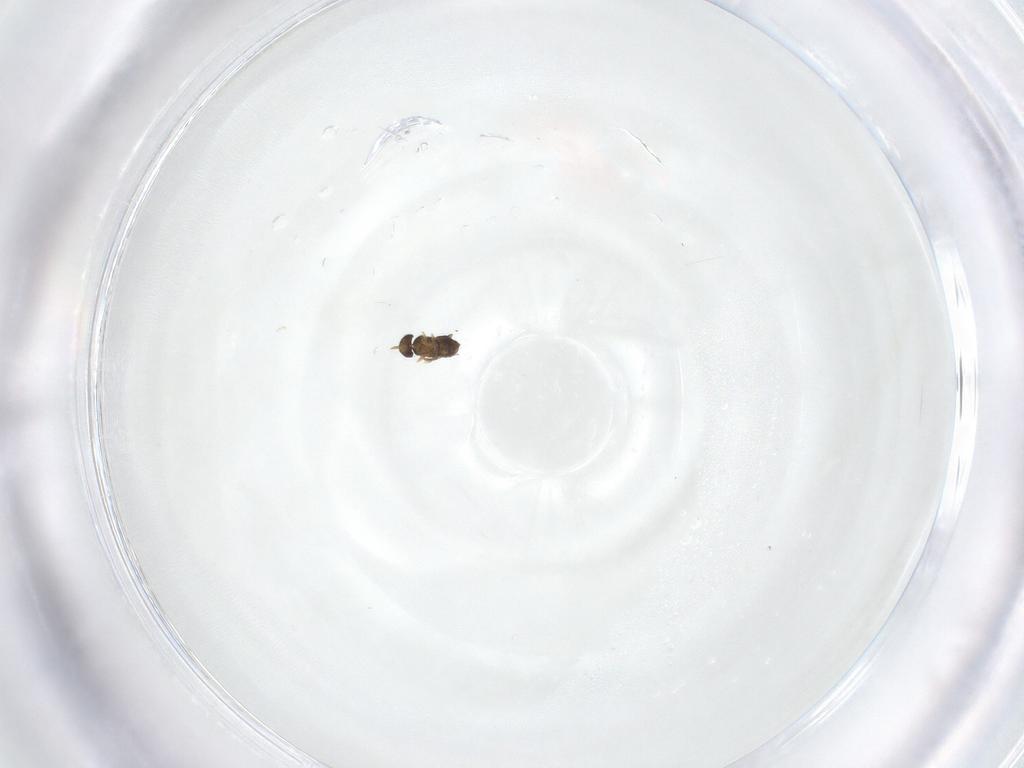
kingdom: Animalia
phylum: Arthropoda
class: Insecta
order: Hymenoptera
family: Trichogrammatidae
